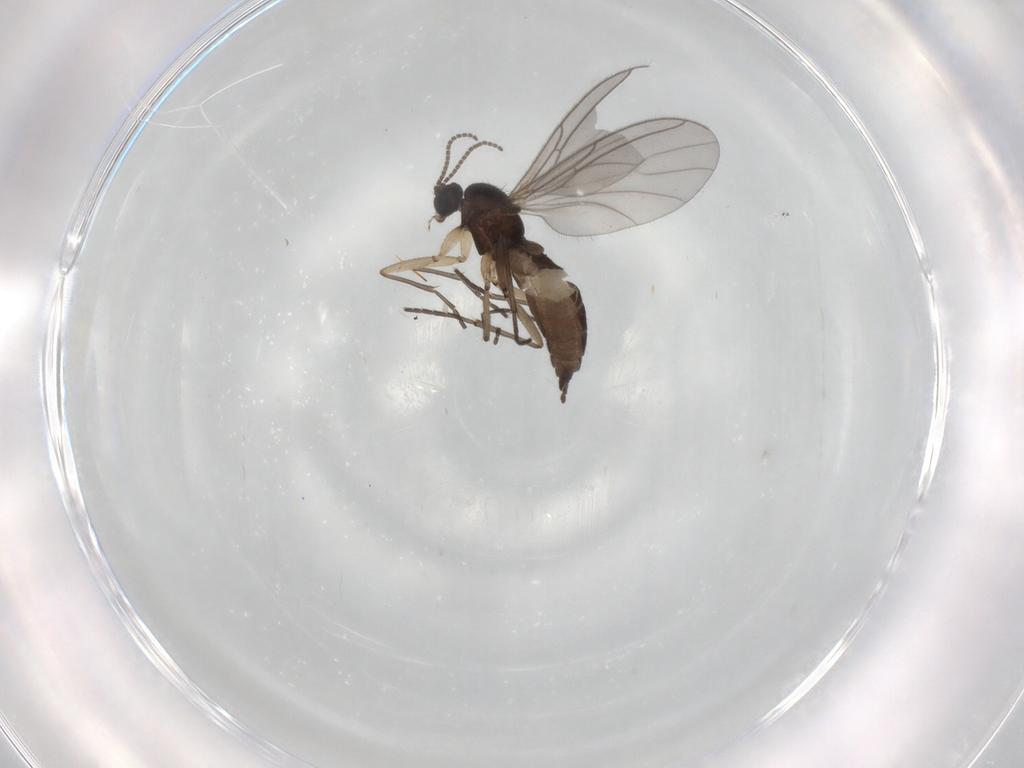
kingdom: Animalia
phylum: Arthropoda
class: Insecta
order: Diptera
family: Sciaridae
